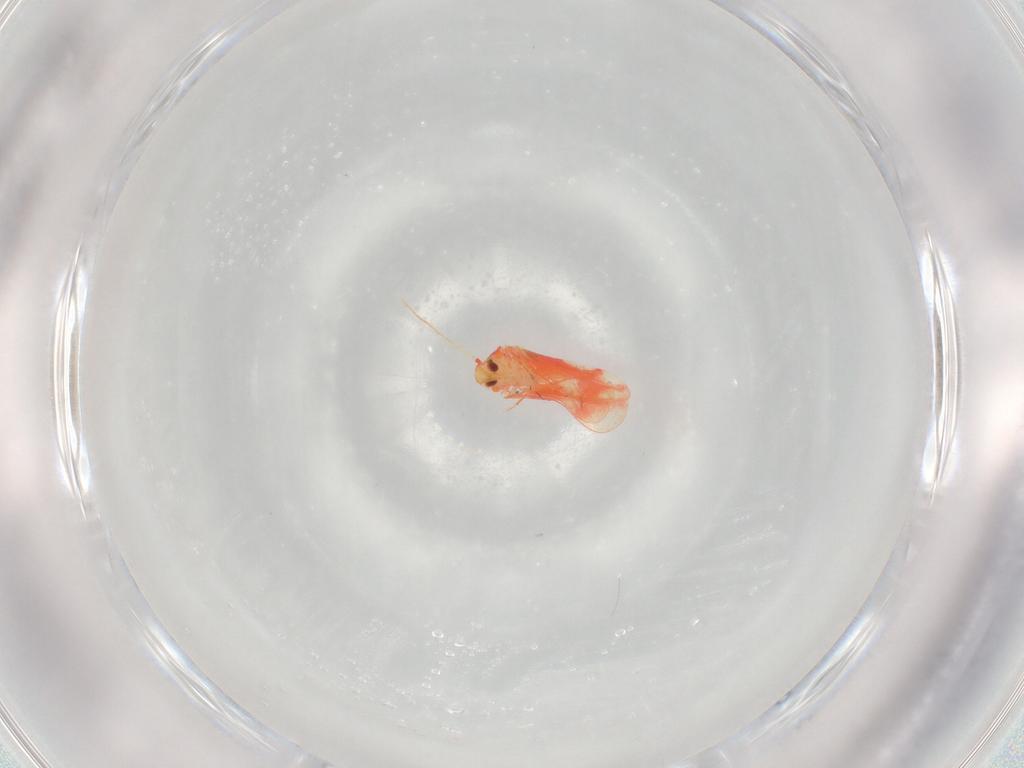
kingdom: Animalia
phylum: Arthropoda
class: Insecta
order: Hemiptera
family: Aleyrodidae
